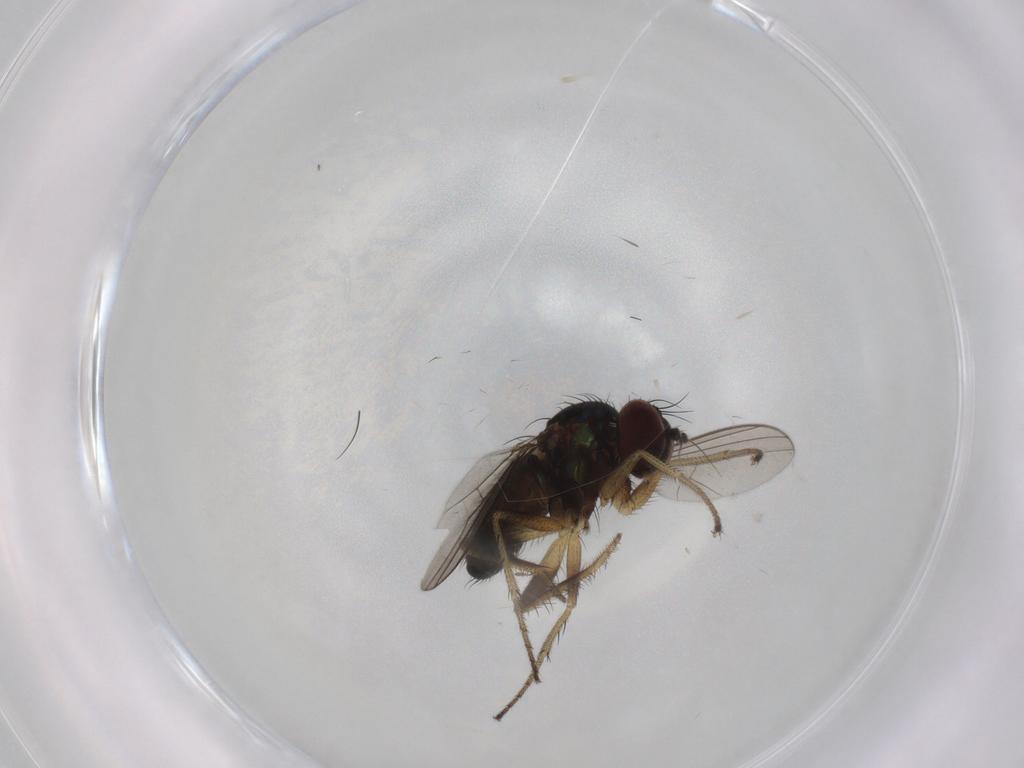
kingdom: Animalia
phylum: Arthropoda
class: Insecta
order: Diptera
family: Dolichopodidae
